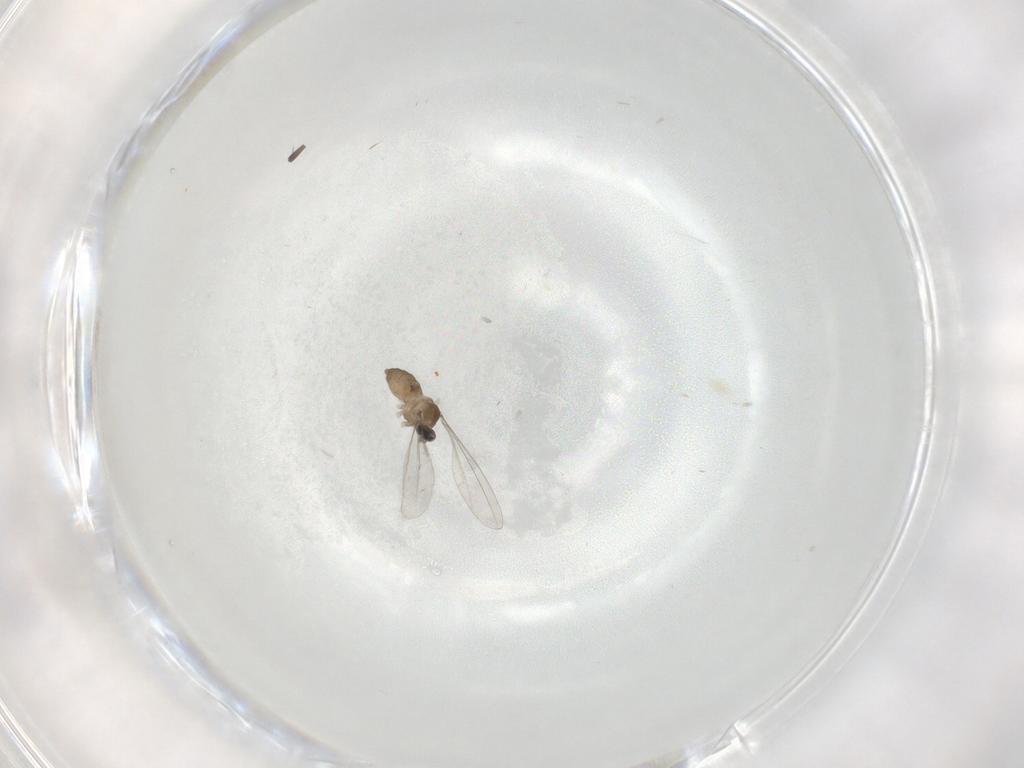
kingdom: Animalia
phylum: Arthropoda
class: Insecta
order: Diptera
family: Cecidomyiidae
